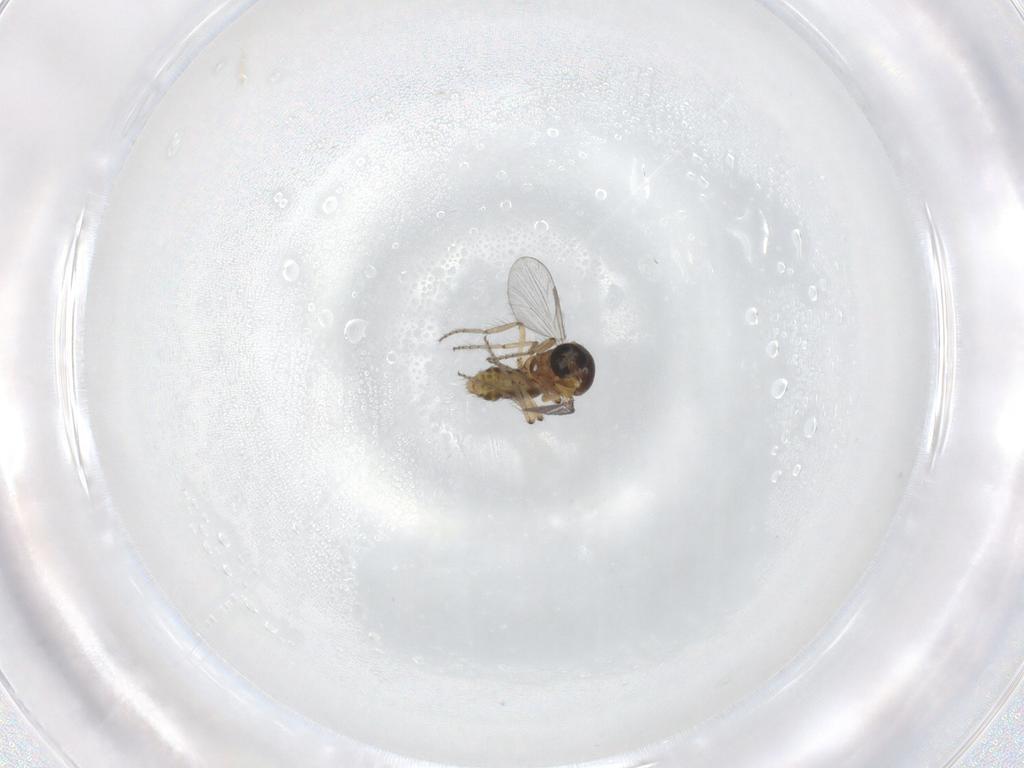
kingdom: Animalia
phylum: Arthropoda
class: Insecta
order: Diptera
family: Ceratopogonidae
